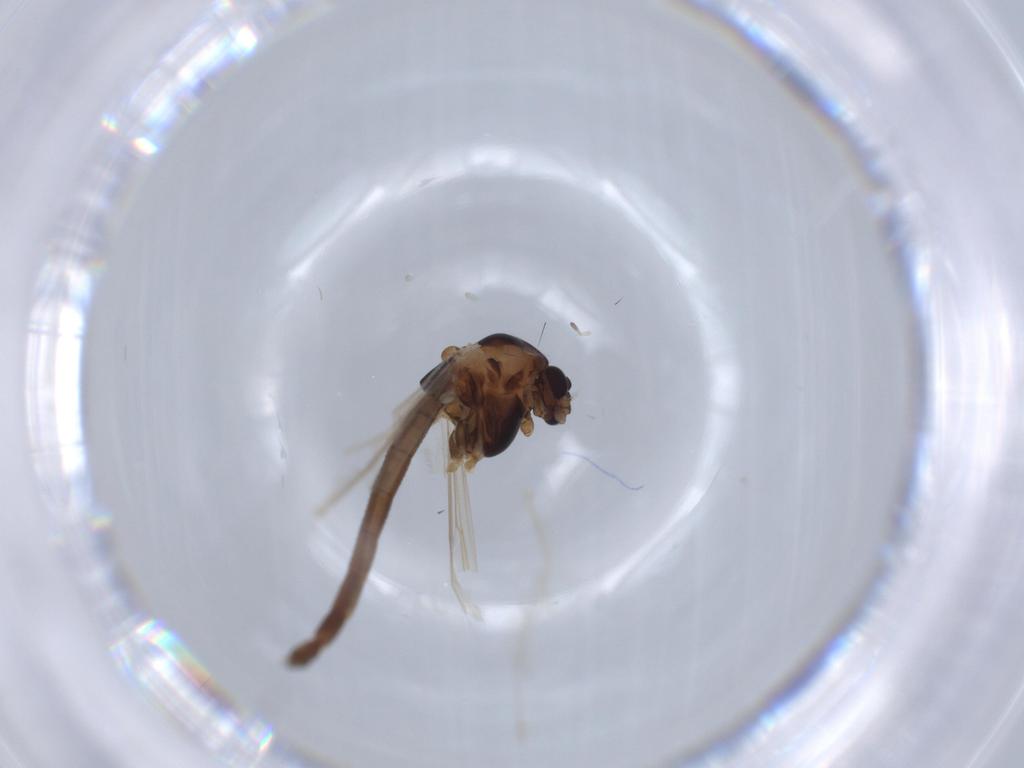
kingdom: Animalia
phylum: Arthropoda
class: Insecta
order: Diptera
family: Chironomidae
